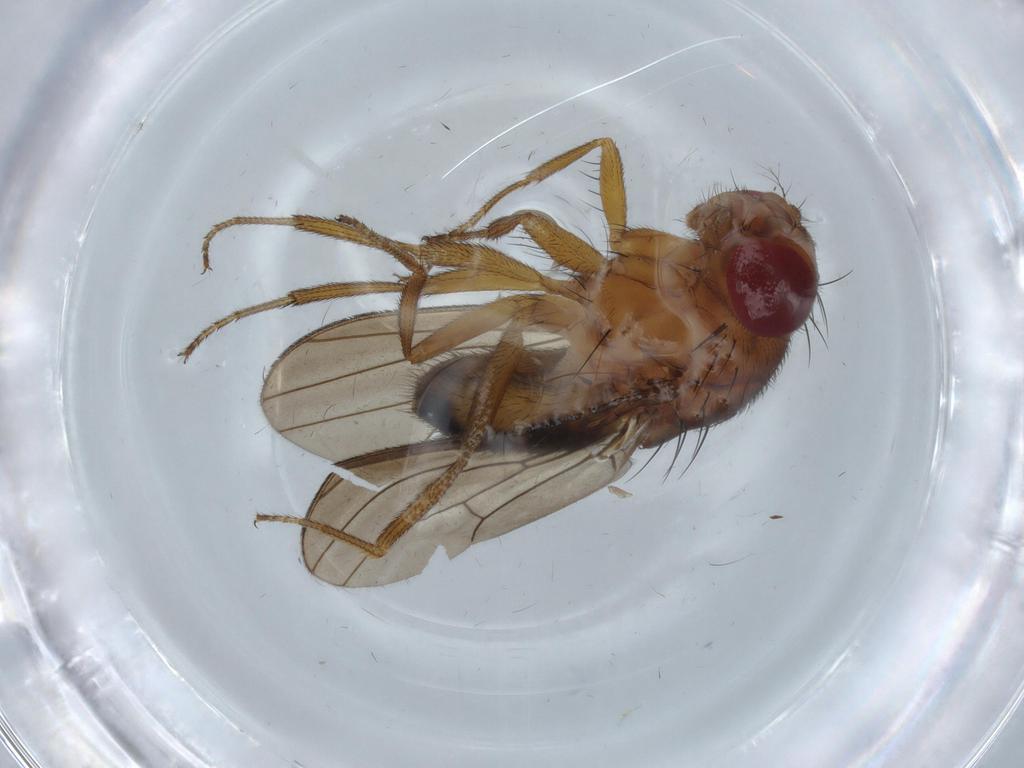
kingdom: Animalia
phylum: Arthropoda
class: Insecta
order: Diptera
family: Drosophilidae
